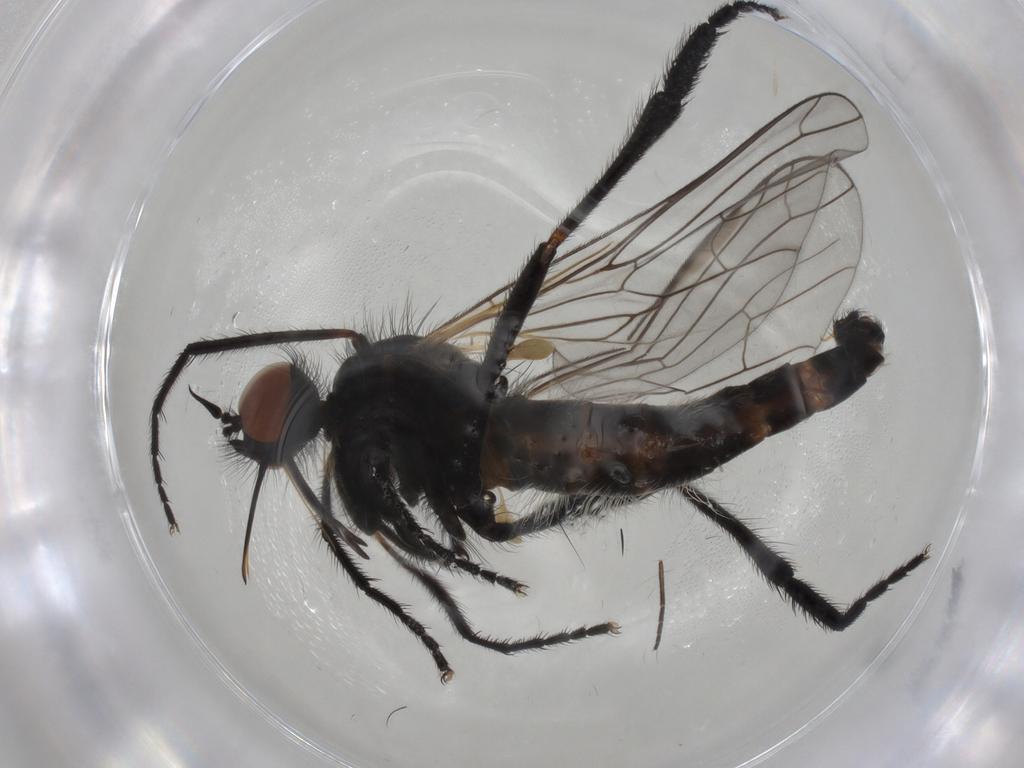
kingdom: Animalia
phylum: Arthropoda
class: Insecta
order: Diptera
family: Empididae
